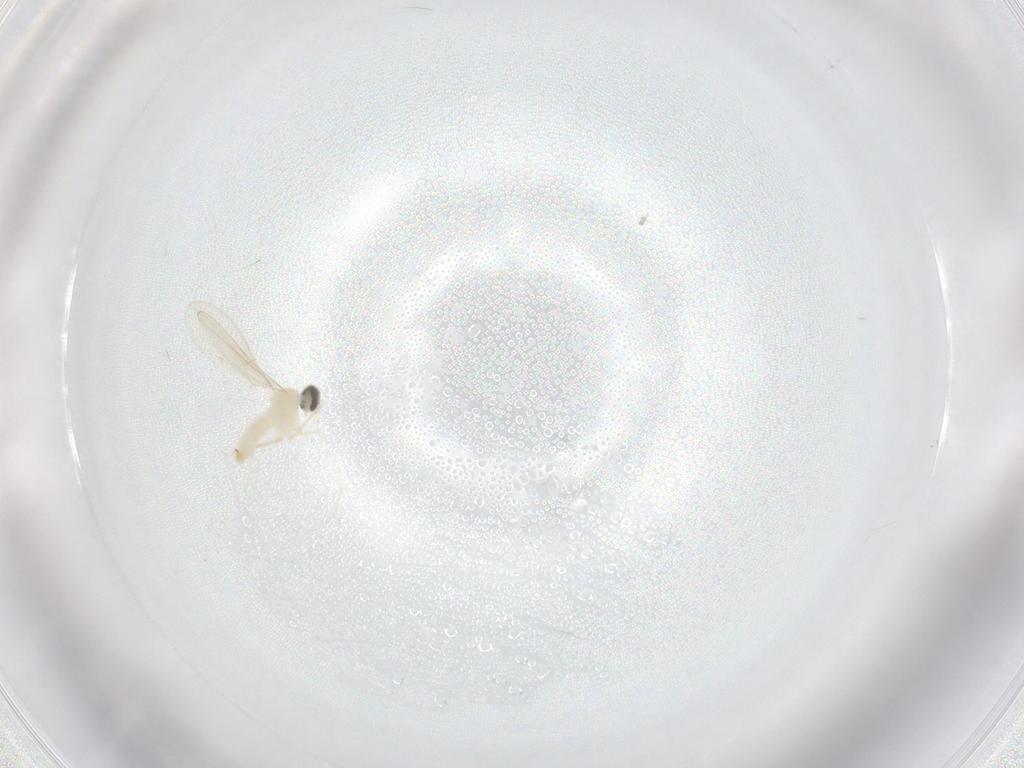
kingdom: Animalia
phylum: Arthropoda
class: Insecta
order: Diptera
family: Cecidomyiidae
